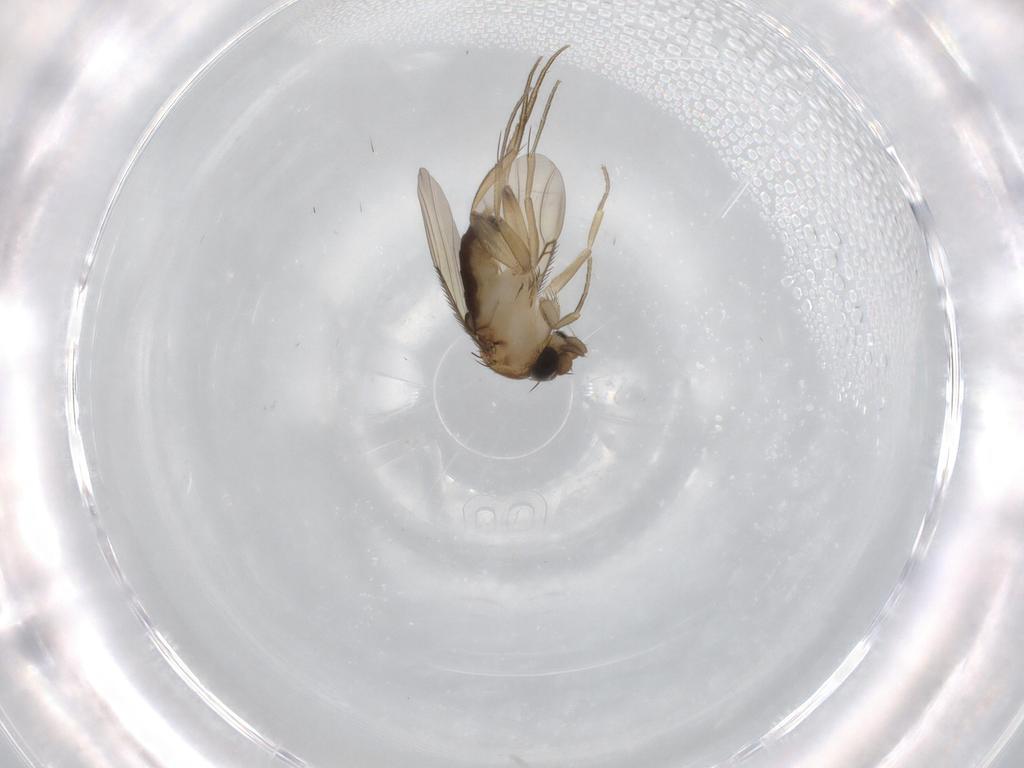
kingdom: Animalia
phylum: Arthropoda
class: Insecta
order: Diptera
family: Phoridae
